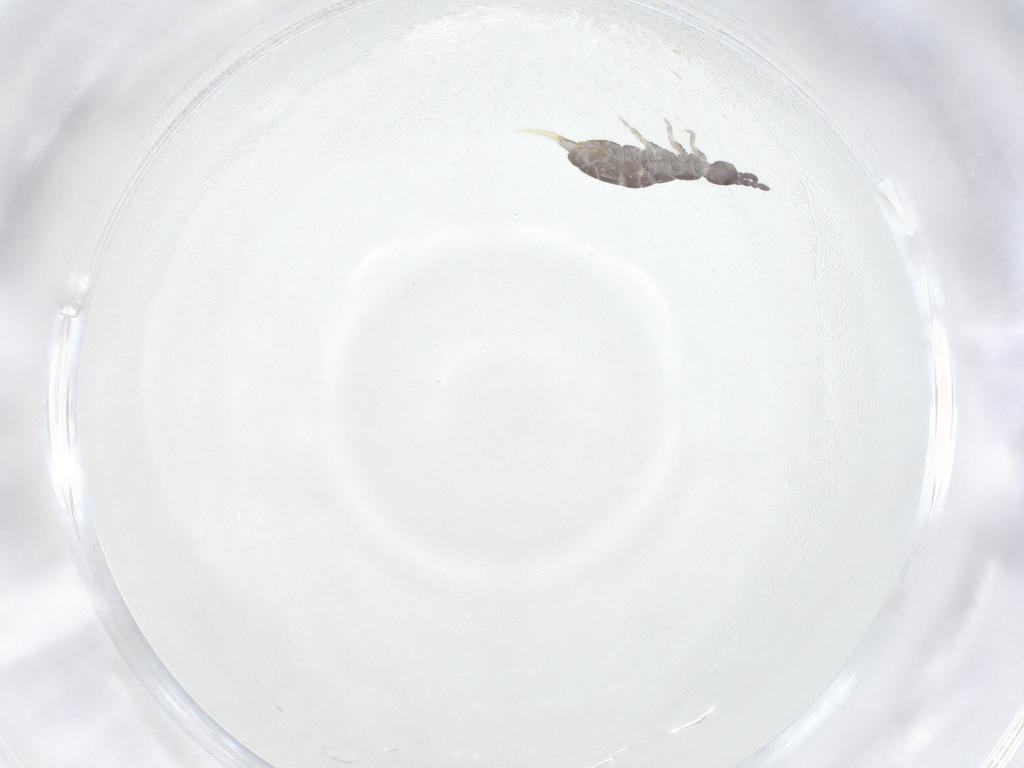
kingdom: Animalia
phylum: Arthropoda
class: Collembola
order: Entomobryomorpha
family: Isotomidae
